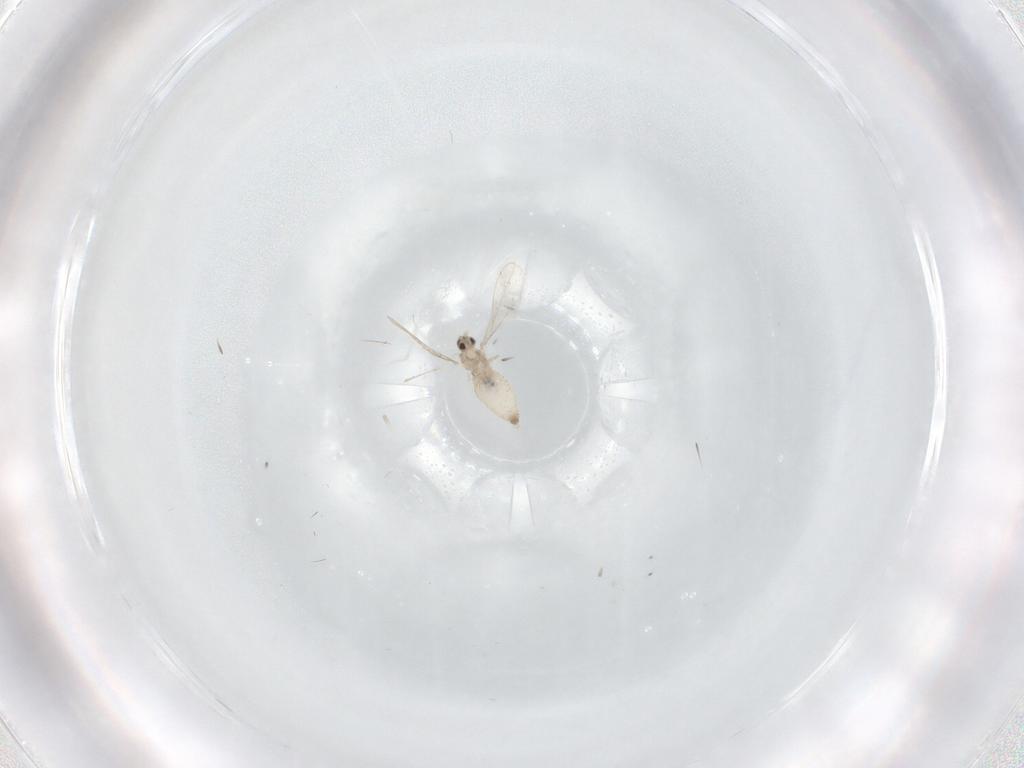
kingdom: Animalia
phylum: Arthropoda
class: Insecta
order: Diptera
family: Cecidomyiidae
